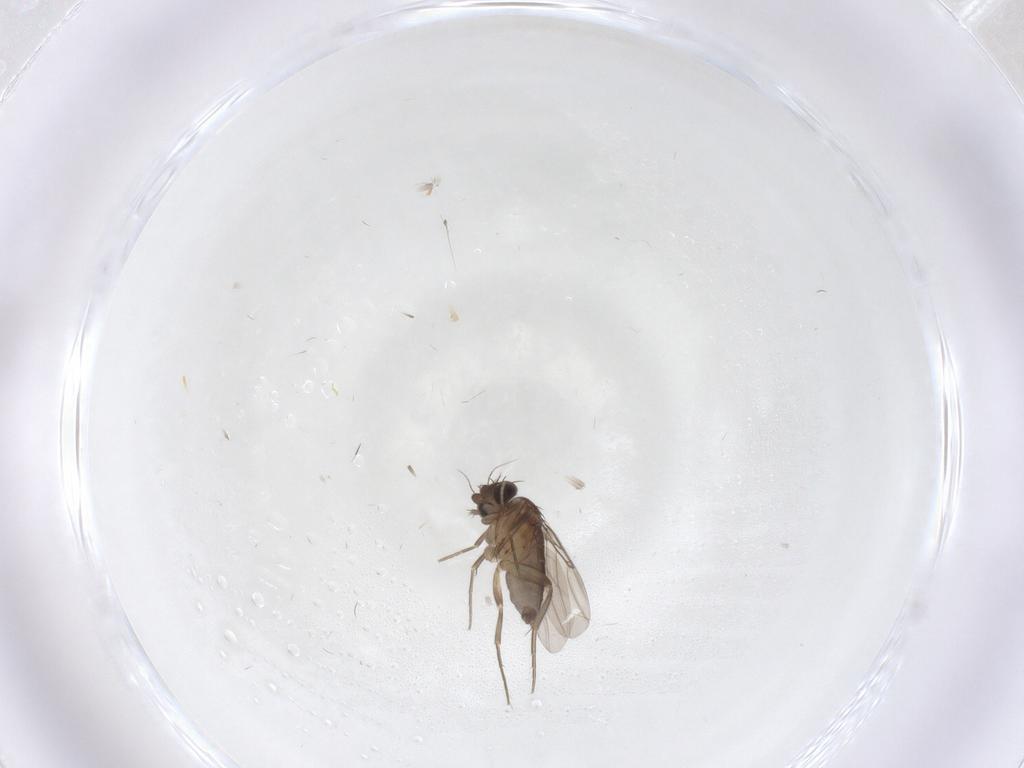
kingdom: Animalia
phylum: Arthropoda
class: Insecta
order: Diptera
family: Phoridae
